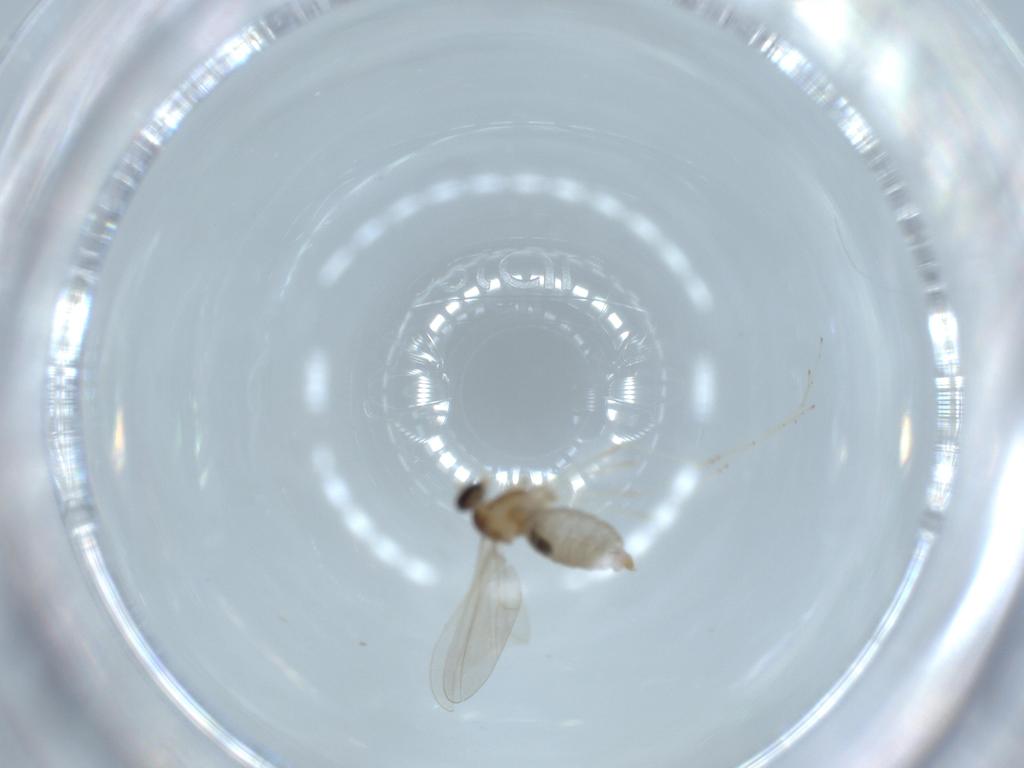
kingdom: Animalia
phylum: Arthropoda
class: Insecta
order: Diptera
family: Cecidomyiidae
